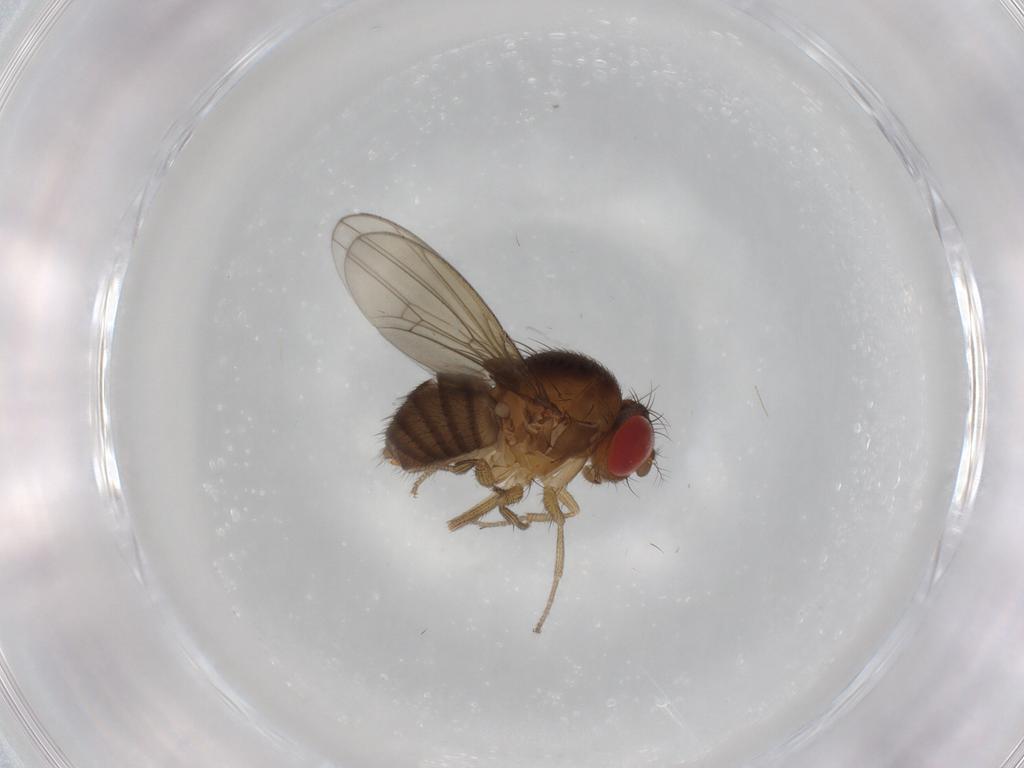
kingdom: Animalia
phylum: Arthropoda
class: Insecta
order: Diptera
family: Drosophilidae
